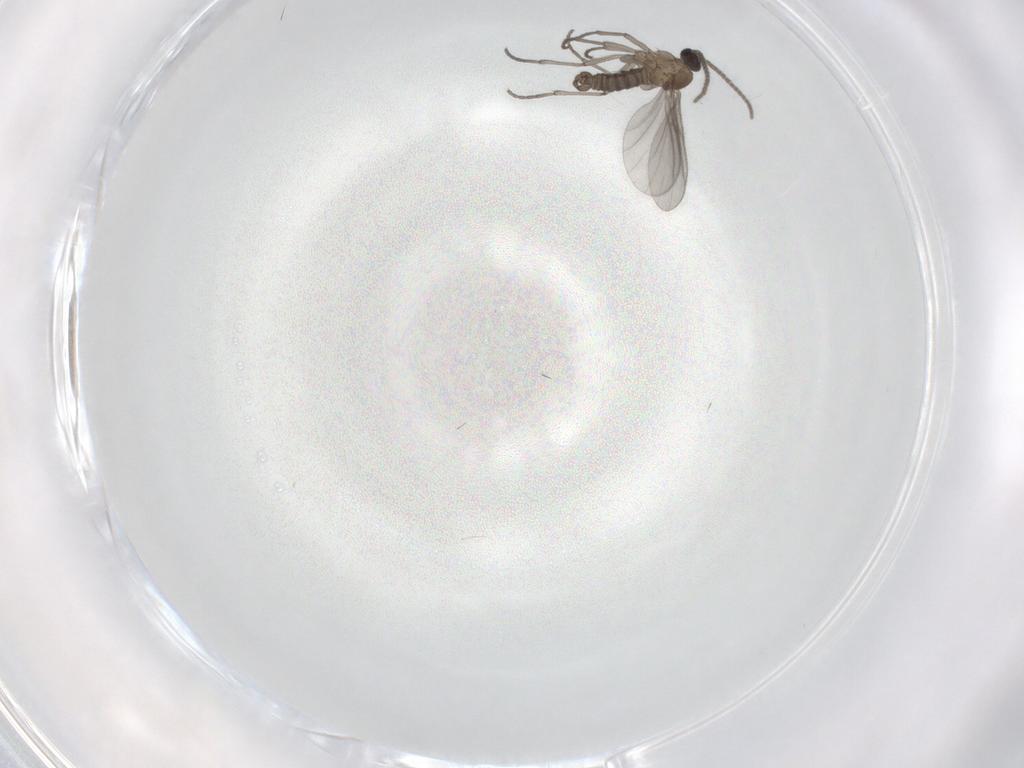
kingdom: Animalia
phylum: Arthropoda
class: Insecta
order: Diptera
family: Sciaridae
